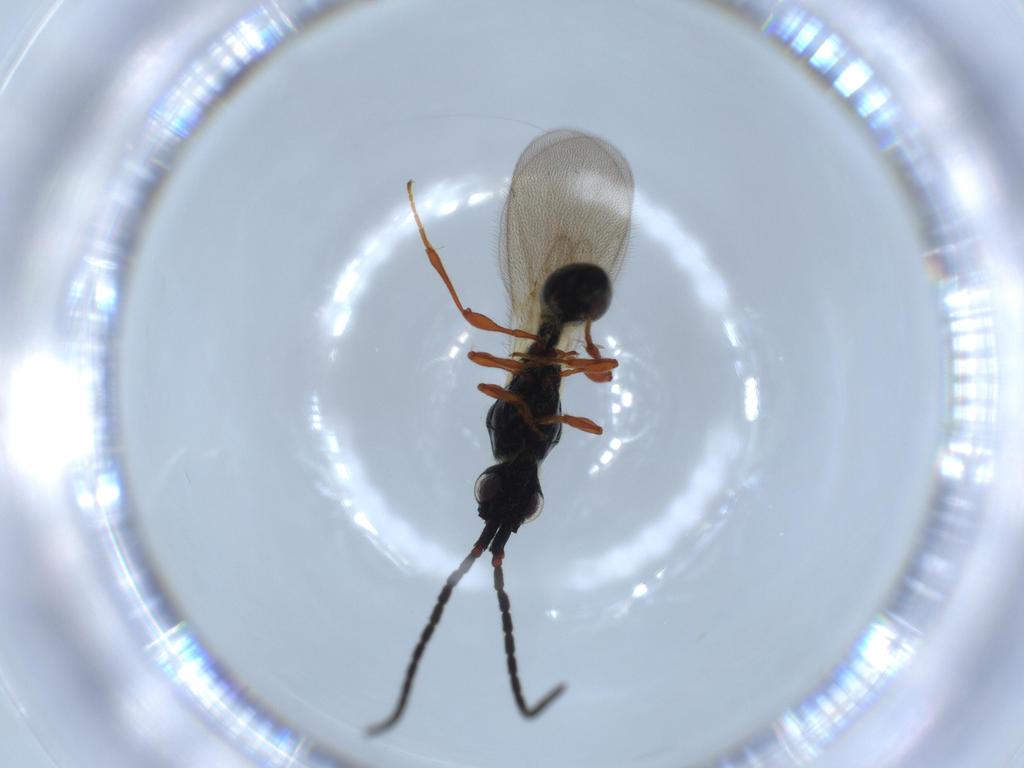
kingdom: Animalia
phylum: Arthropoda
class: Insecta
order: Hymenoptera
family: Diapriidae
